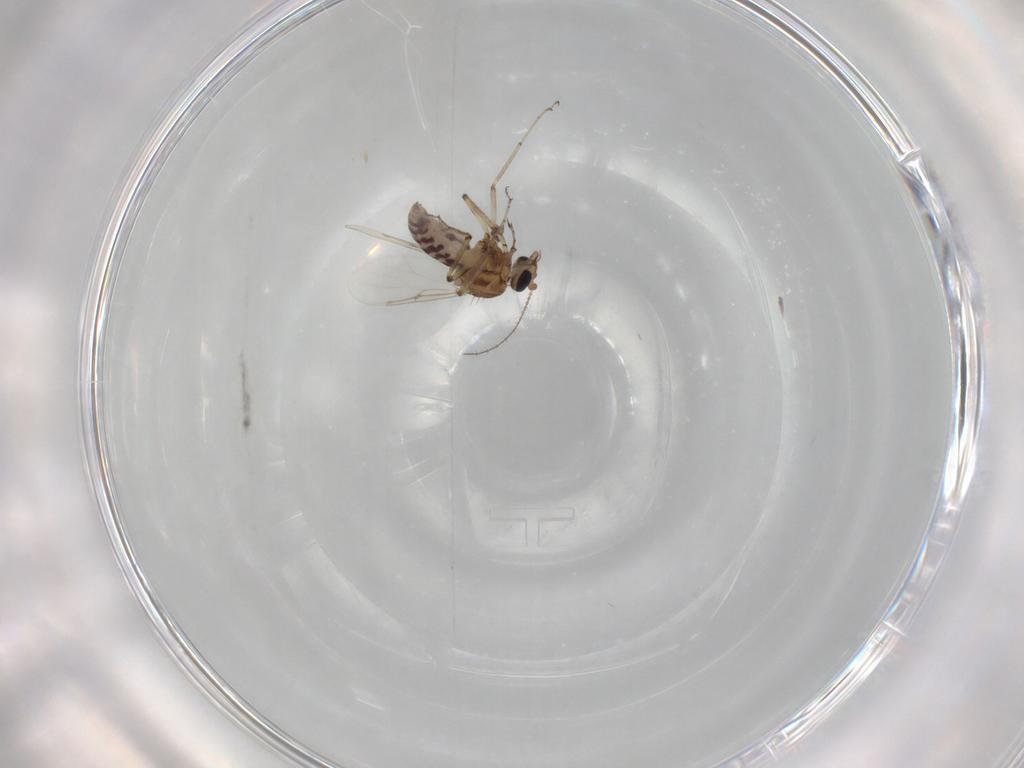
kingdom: Animalia
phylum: Arthropoda
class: Insecta
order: Diptera
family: Ceratopogonidae
